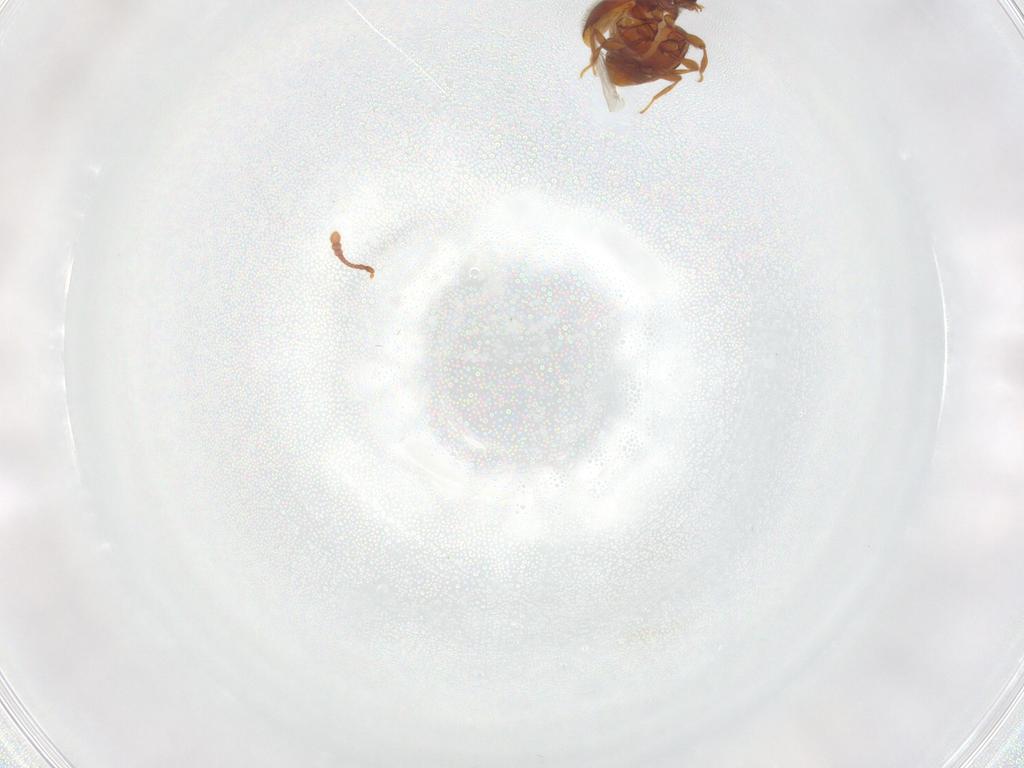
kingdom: Animalia
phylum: Arthropoda
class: Insecta
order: Coleoptera
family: Staphylinidae
